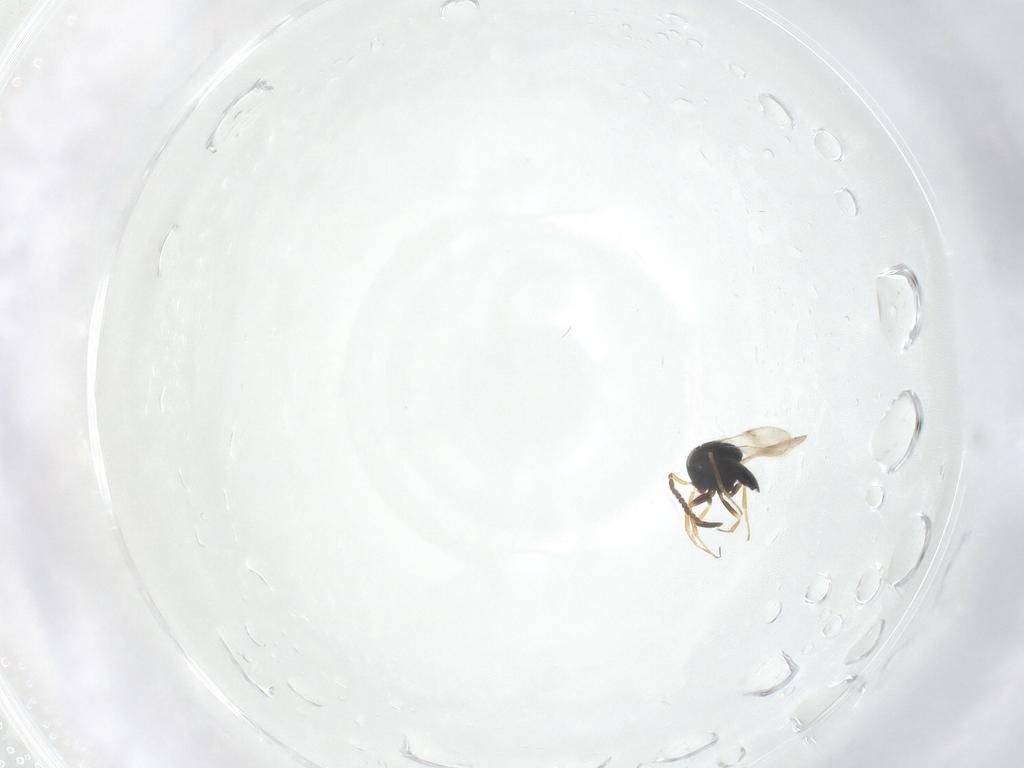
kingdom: Animalia
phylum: Arthropoda
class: Insecta
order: Hymenoptera
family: Scelionidae
